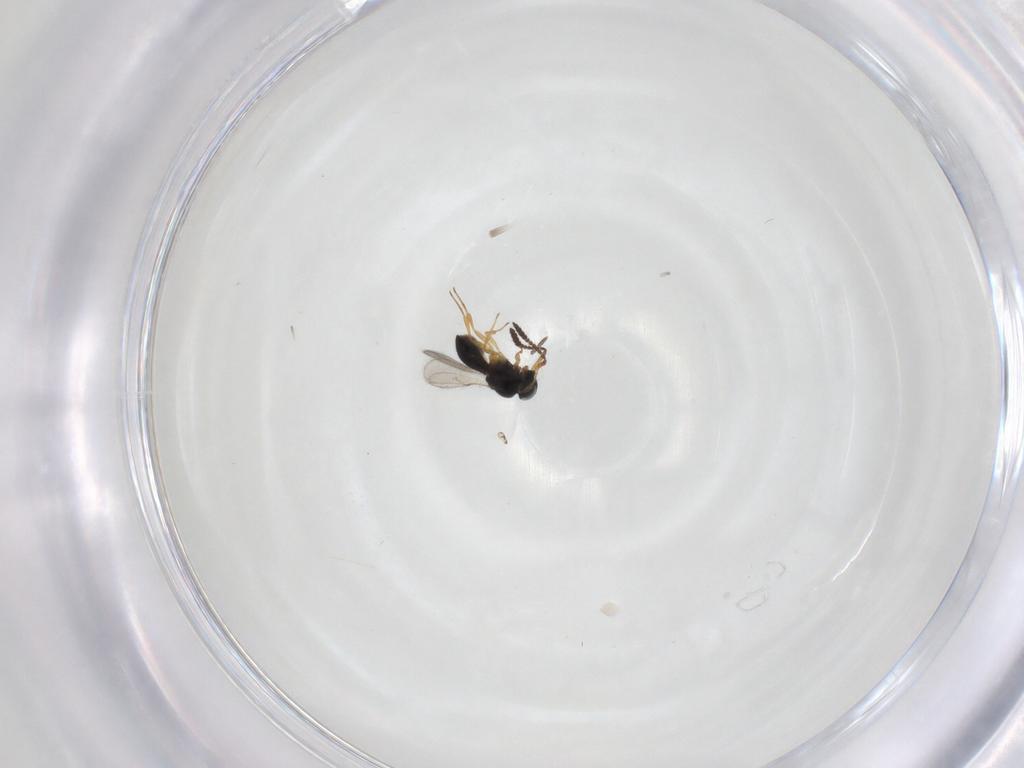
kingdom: Animalia
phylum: Arthropoda
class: Insecta
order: Hymenoptera
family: Scelionidae
